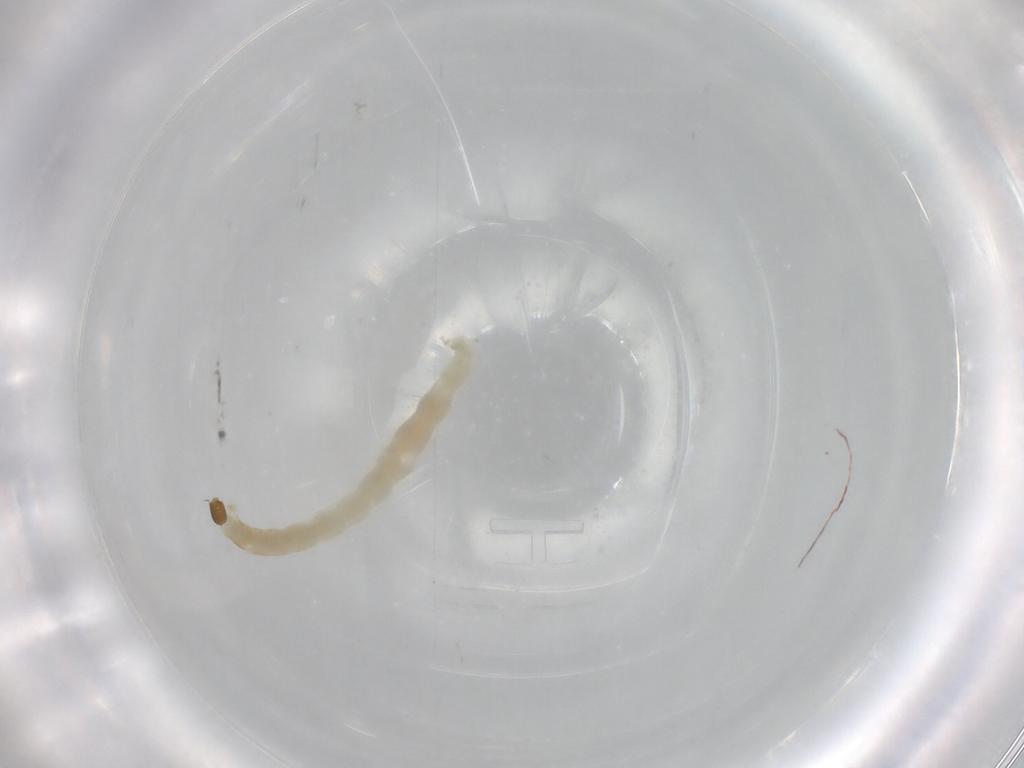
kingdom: Animalia
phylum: Arthropoda
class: Insecta
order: Diptera
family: Chironomidae
